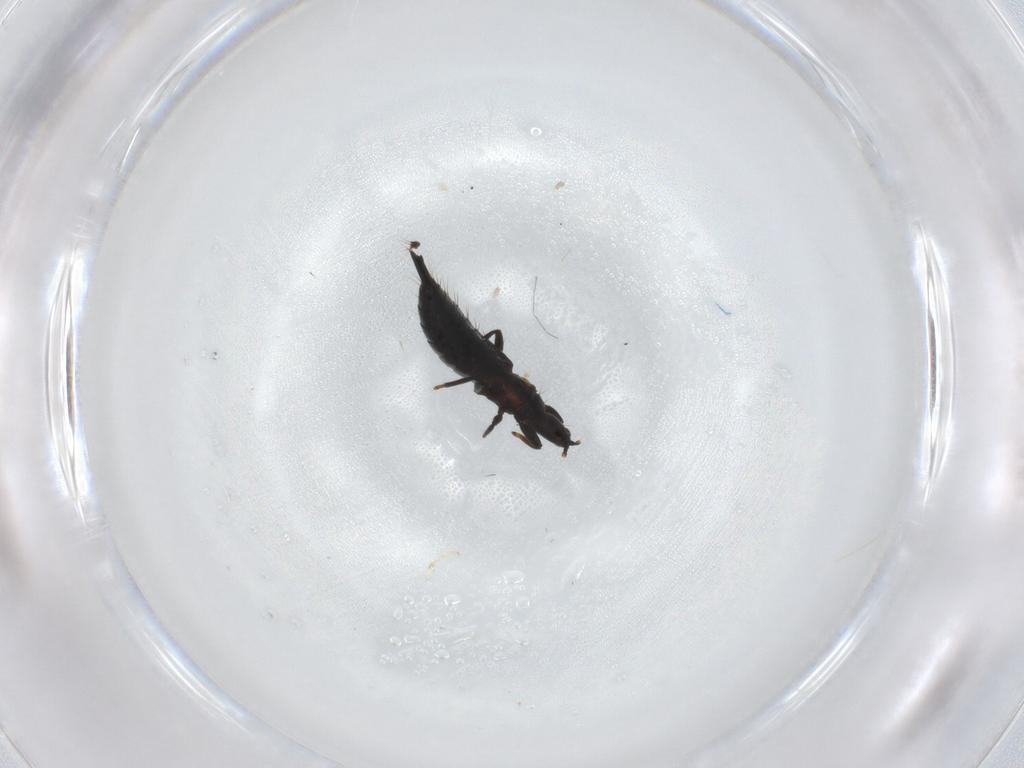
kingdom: Animalia
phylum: Arthropoda
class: Insecta
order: Thysanoptera
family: Phlaeothripidae
